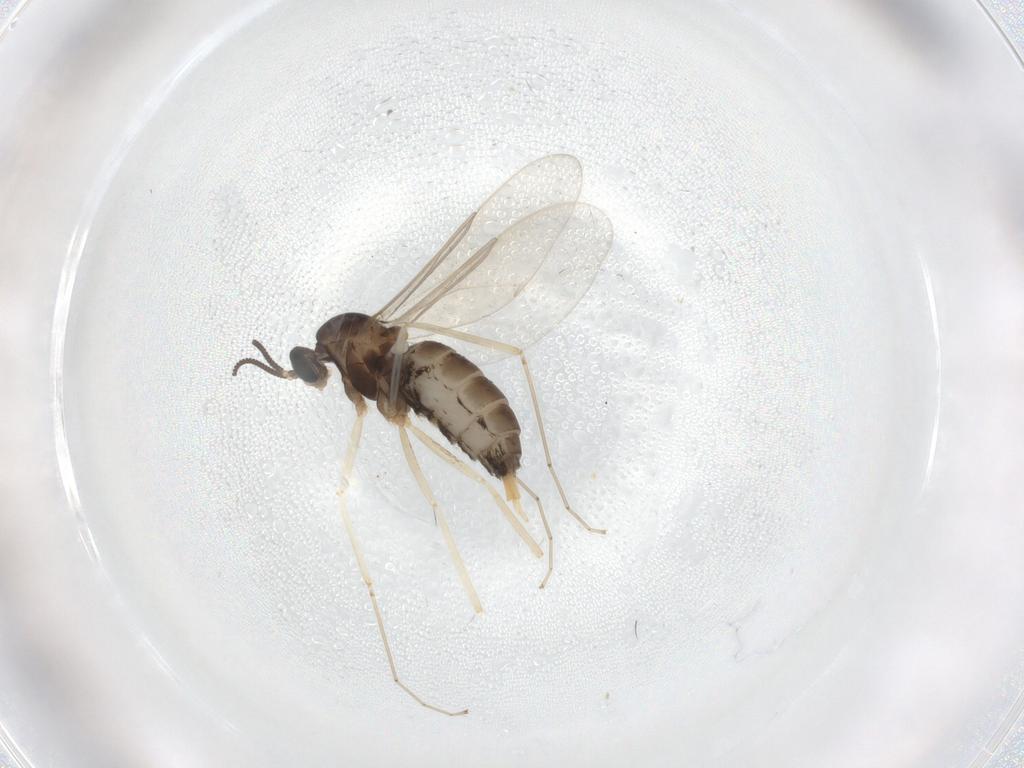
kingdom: Animalia
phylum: Arthropoda
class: Insecta
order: Diptera
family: Cecidomyiidae
